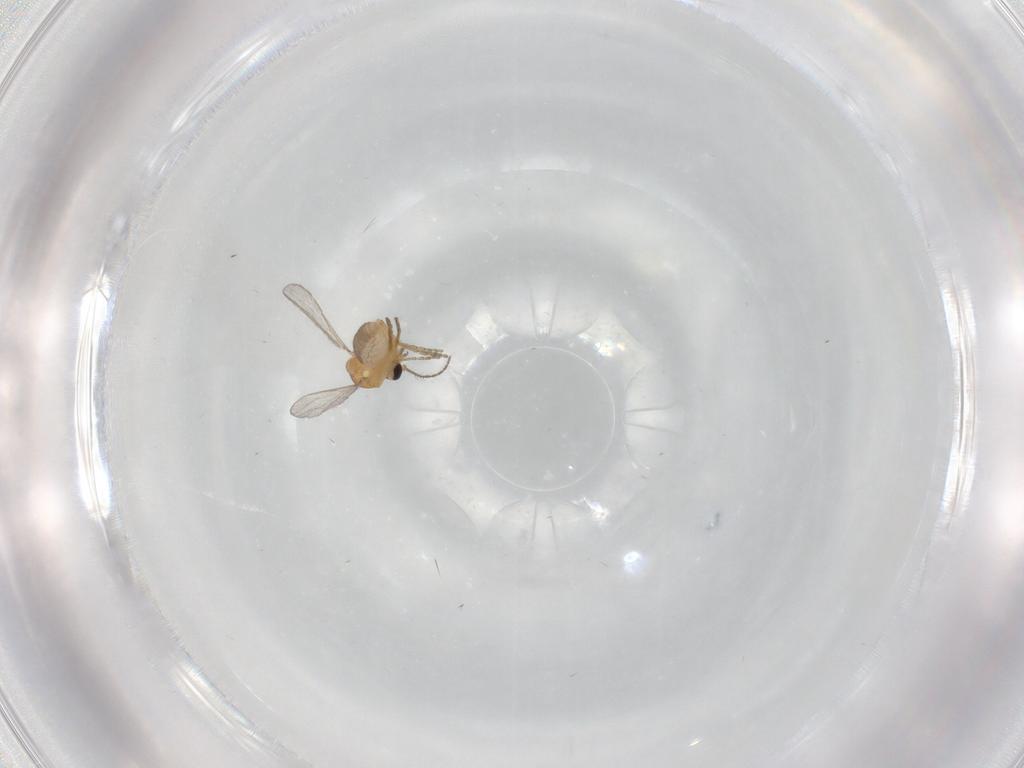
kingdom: Animalia
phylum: Arthropoda
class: Insecta
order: Diptera
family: Ceratopogonidae
